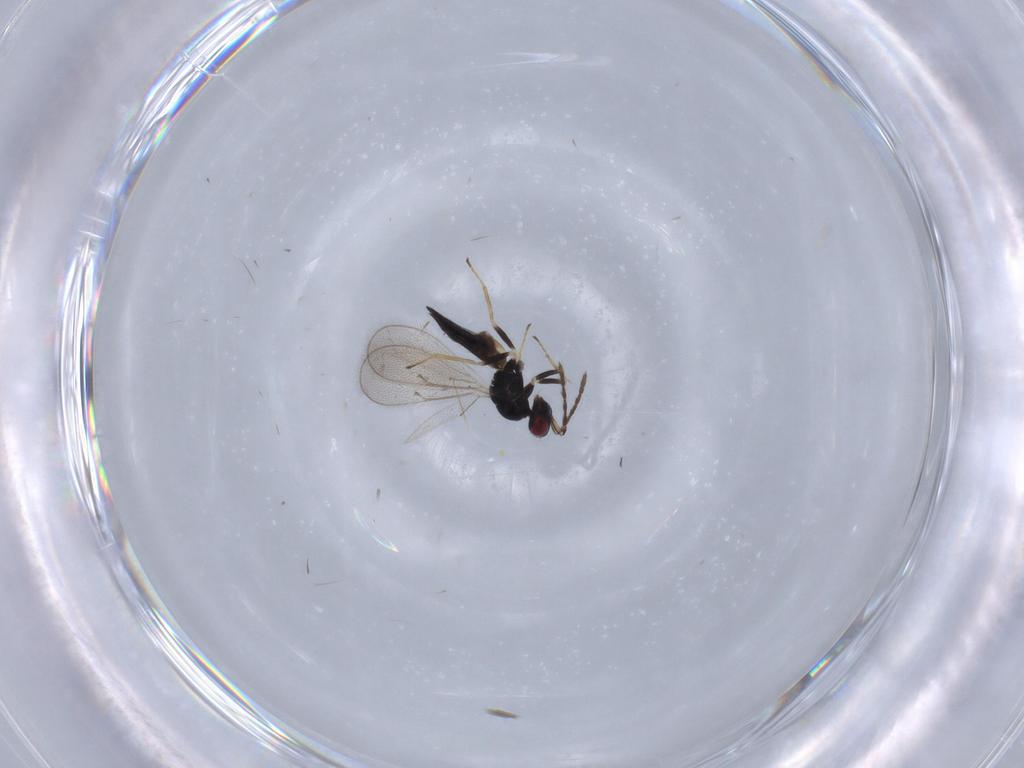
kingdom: Animalia
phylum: Arthropoda
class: Insecta
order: Hymenoptera
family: Eulophidae
